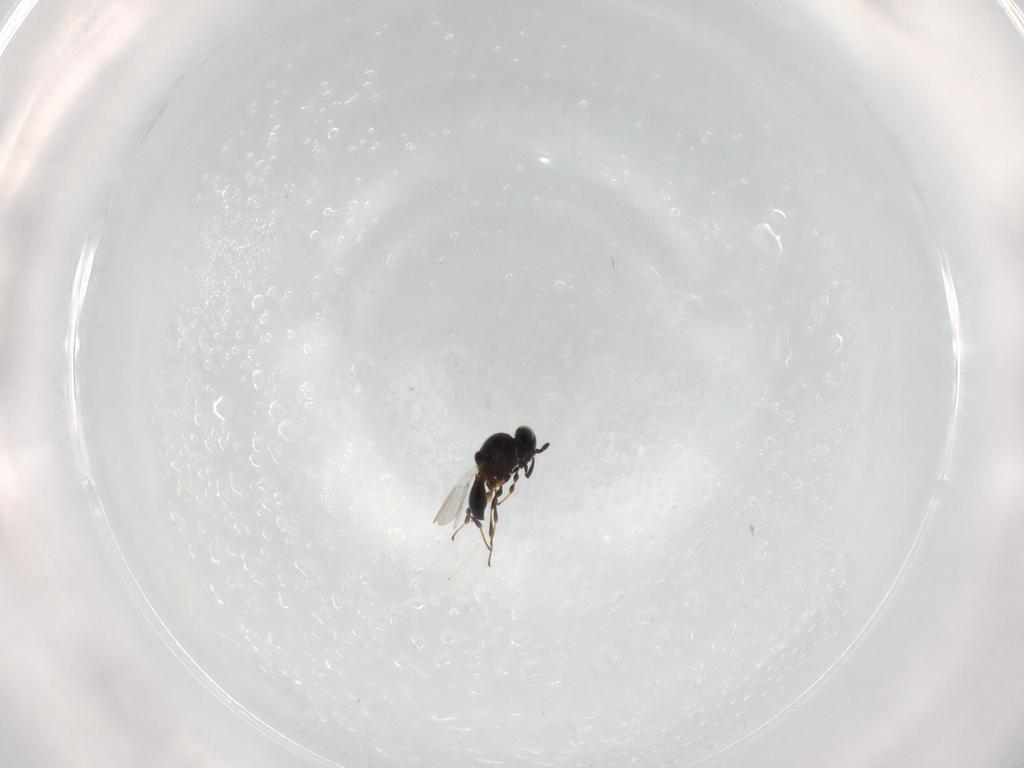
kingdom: Animalia
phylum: Arthropoda
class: Insecta
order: Hymenoptera
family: Platygastridae
